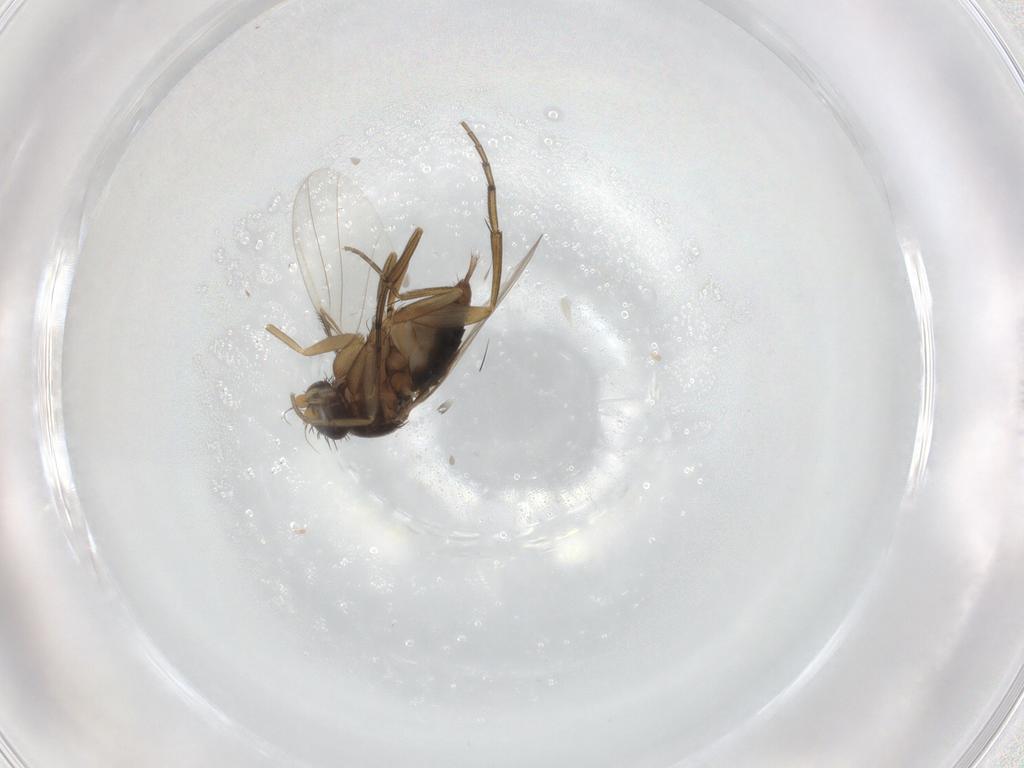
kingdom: Animalia
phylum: Arthropoda
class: Insecta
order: Diptera
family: Phoridae
